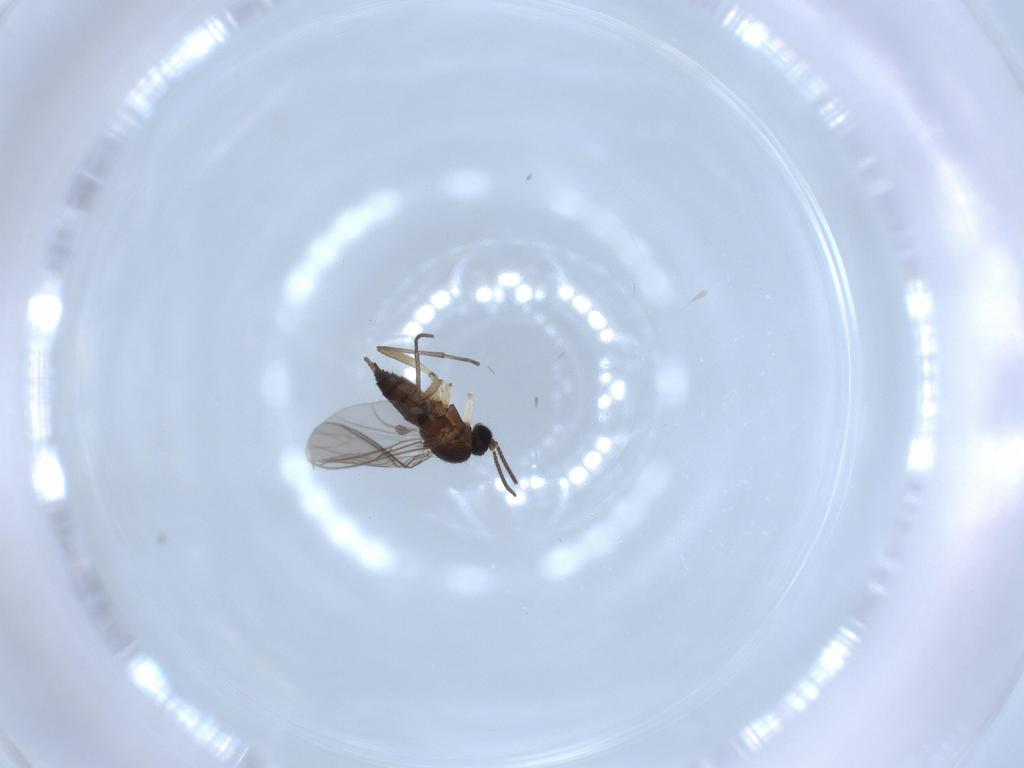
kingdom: Animalia
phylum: Arthropoda
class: Insecta
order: Diptera
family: Sciaridae
